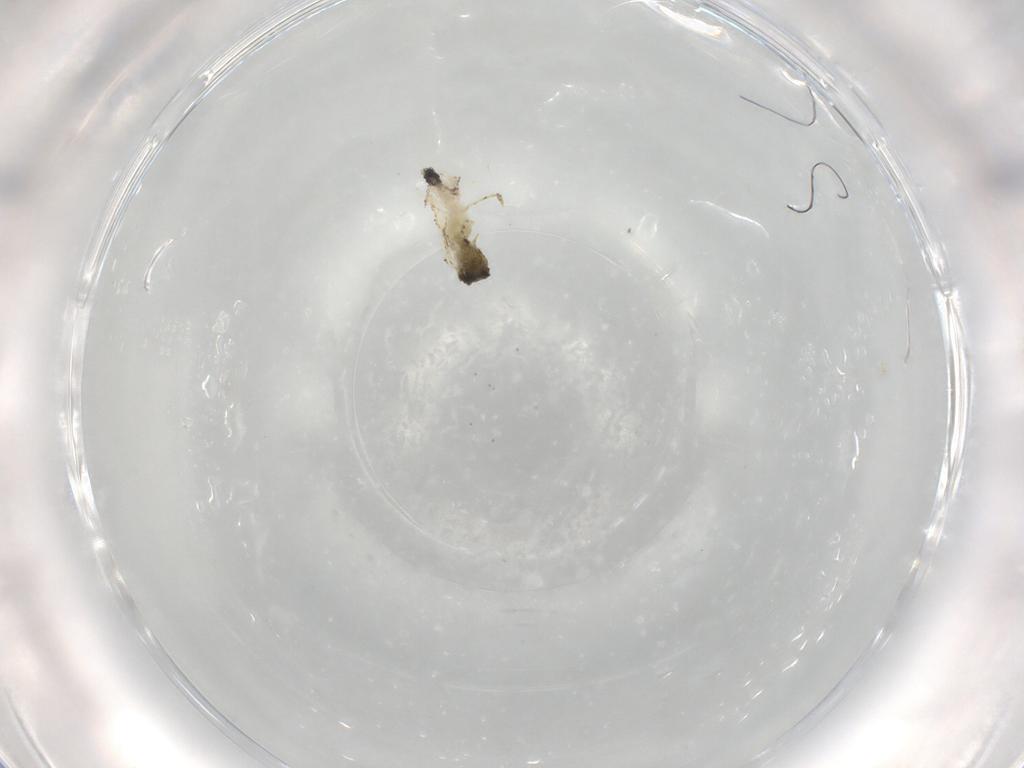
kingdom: Animalia
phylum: Arthropoda
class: Insecta
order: Diptera
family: Cecidomyiidae
